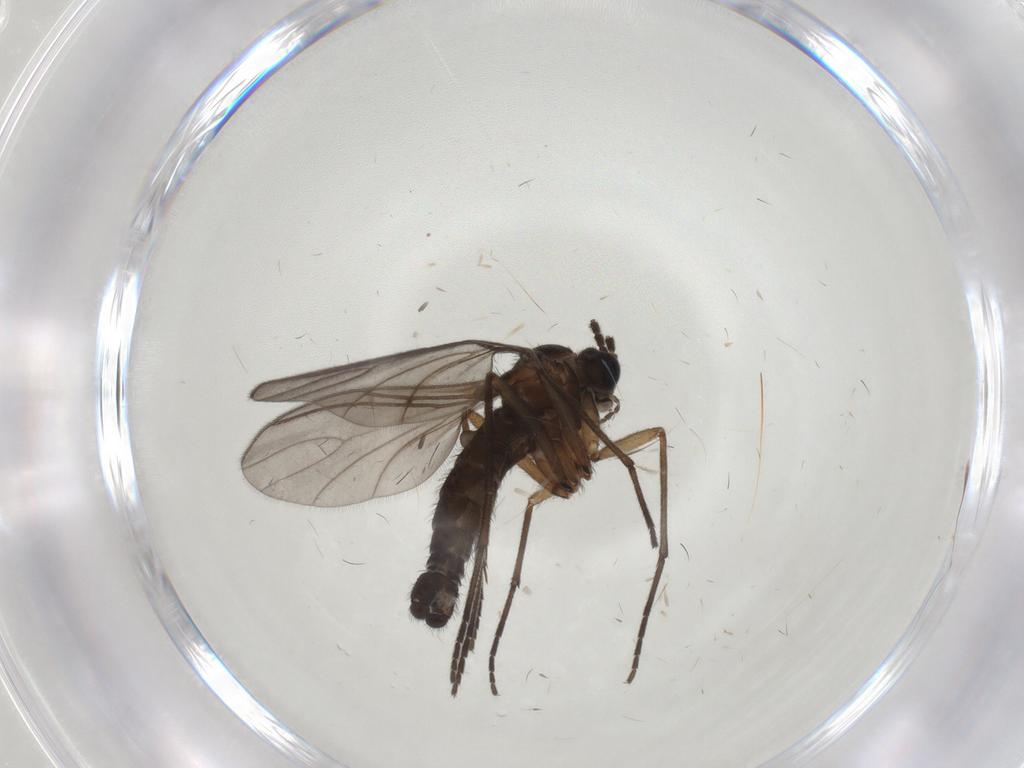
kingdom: Animalia
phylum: Arthropoda
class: Insecta
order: Diptera
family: Sciaridae
